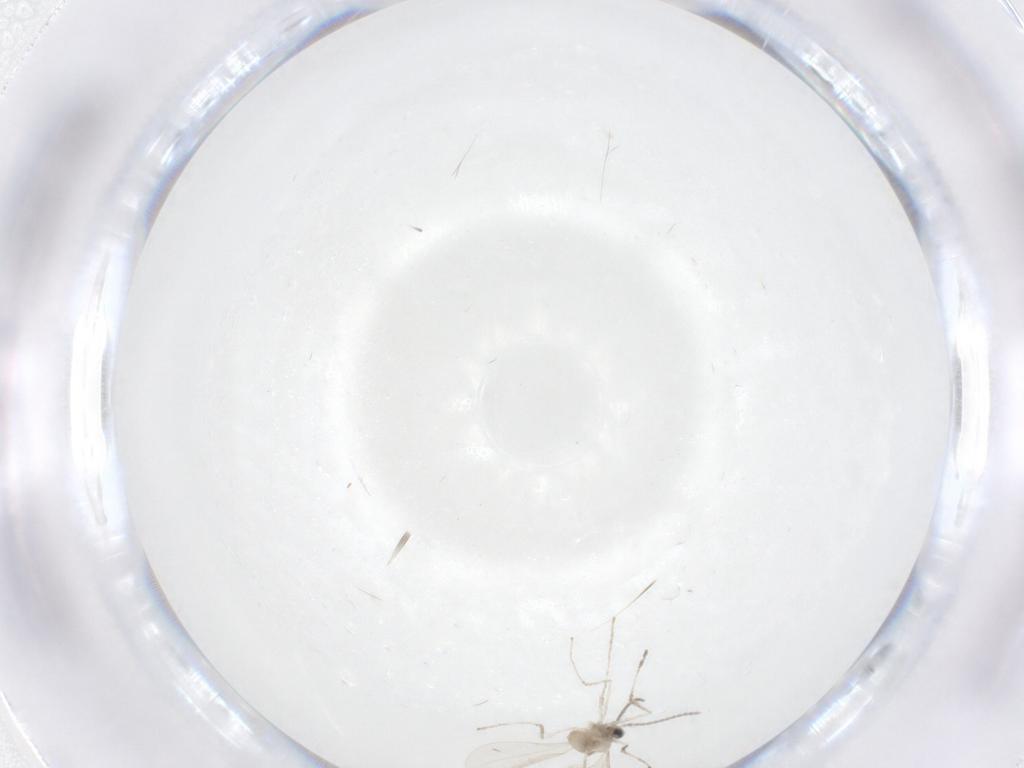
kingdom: Animalia
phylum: Arthropoda
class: Insecta
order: Diptera
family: Cecidomyiidae
